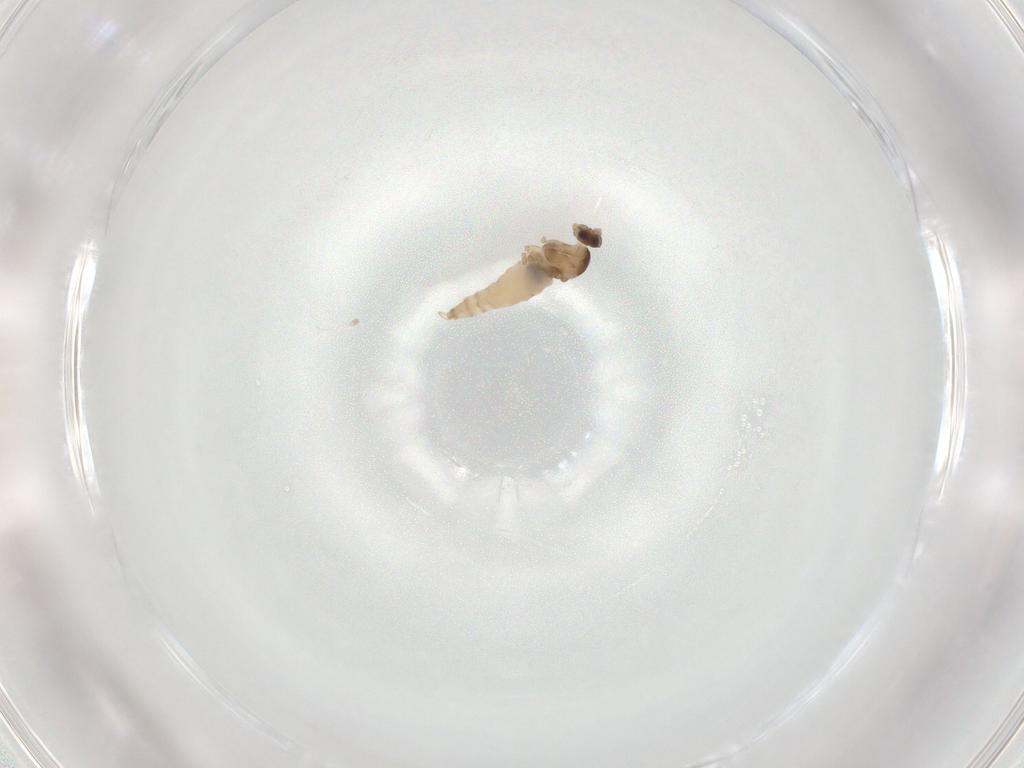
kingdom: Animalia
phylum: Arthropoda
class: Insecta
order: Diptera
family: Cecidomyiidae
